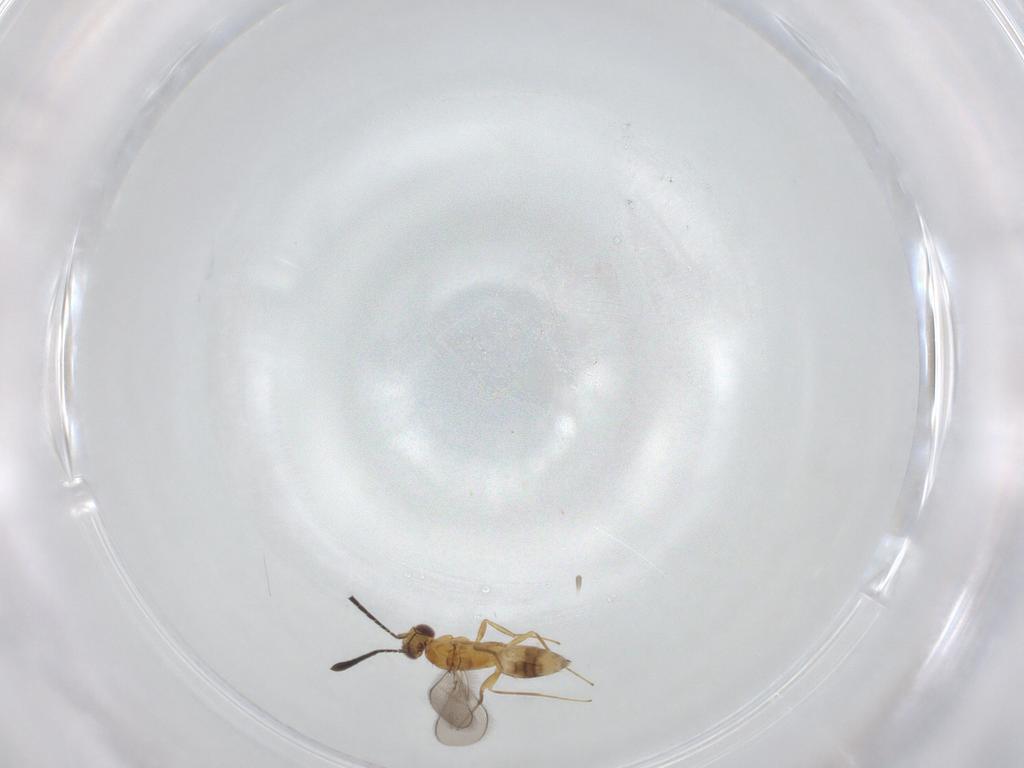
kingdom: Animalia
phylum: Arthropoda
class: Insecta
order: Hymenoptera
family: Mymaridae
